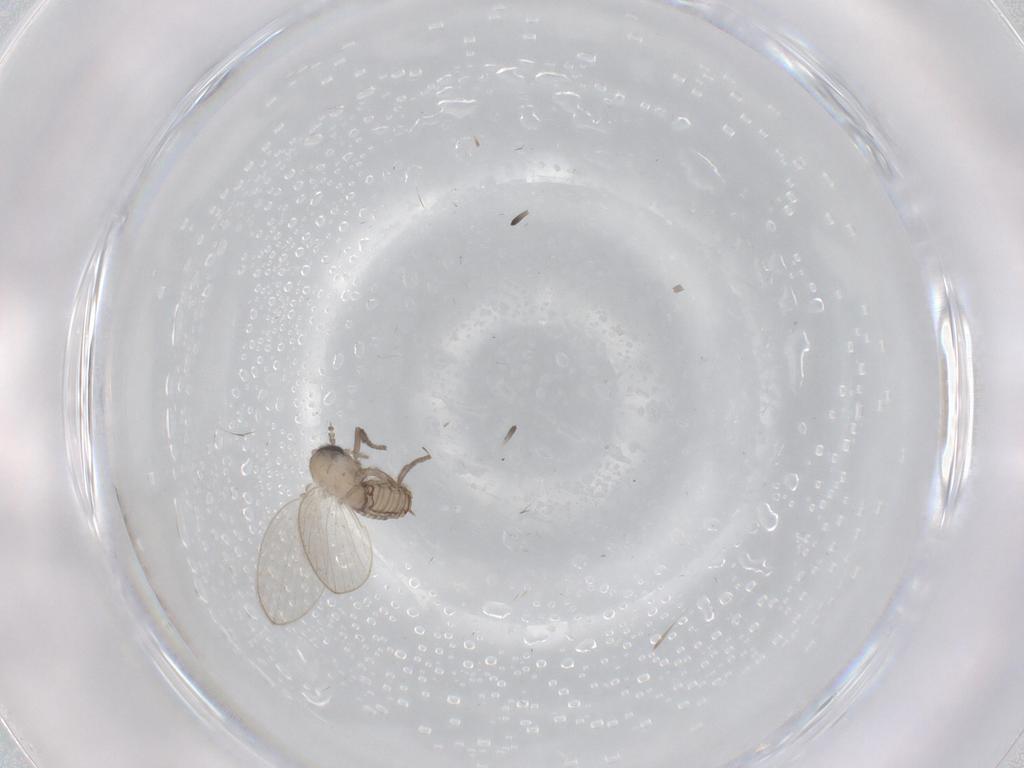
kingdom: Animalia
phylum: Arthropoda
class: Insecta
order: Diptera
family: Psychodidae
